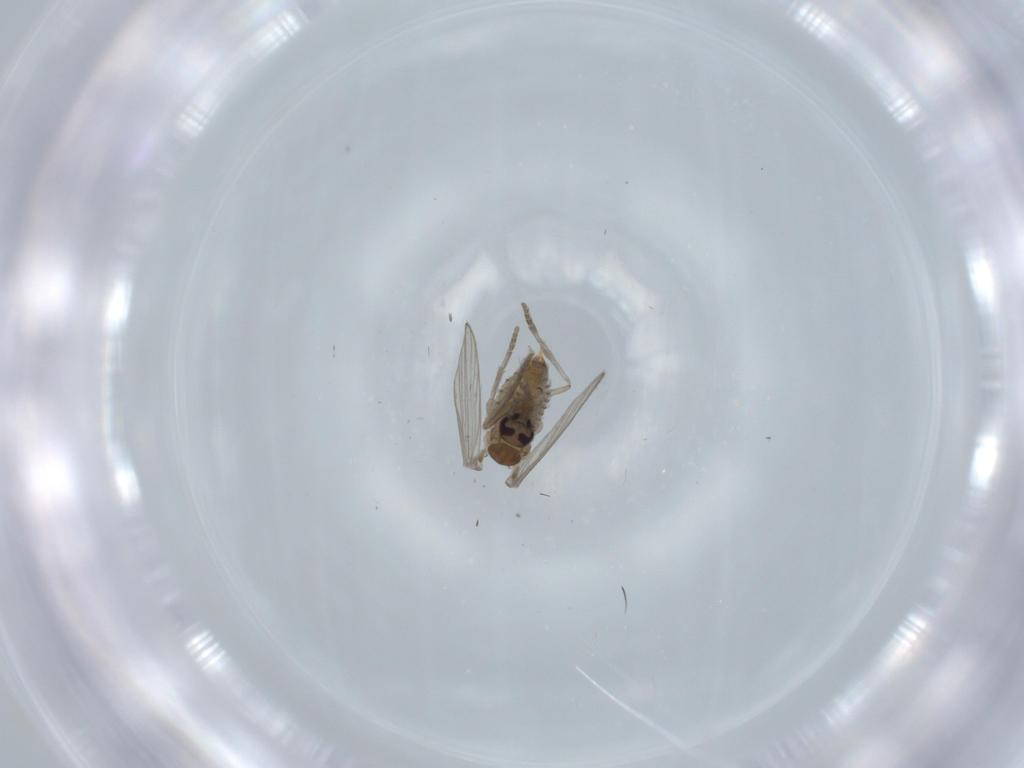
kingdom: Animalia
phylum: Arthropoda
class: Insecta
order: Diptera
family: Psychodidae
